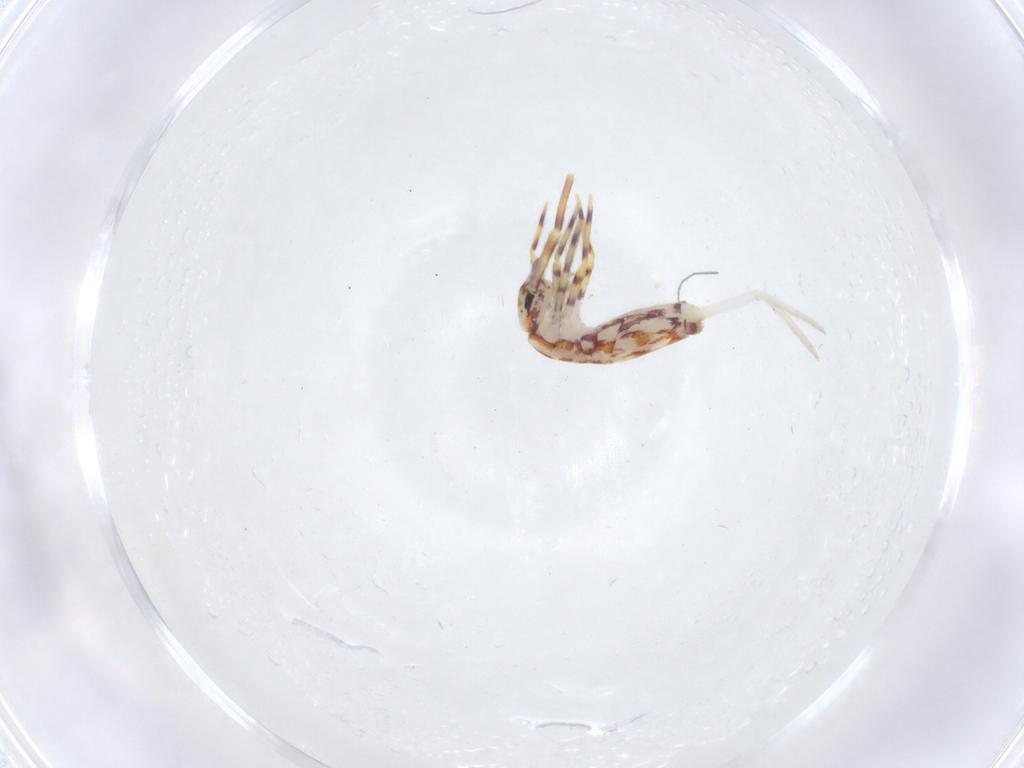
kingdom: Animalia
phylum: Arthropoda
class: Collembola
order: Entomobryomorpha
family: Entomobryidae
